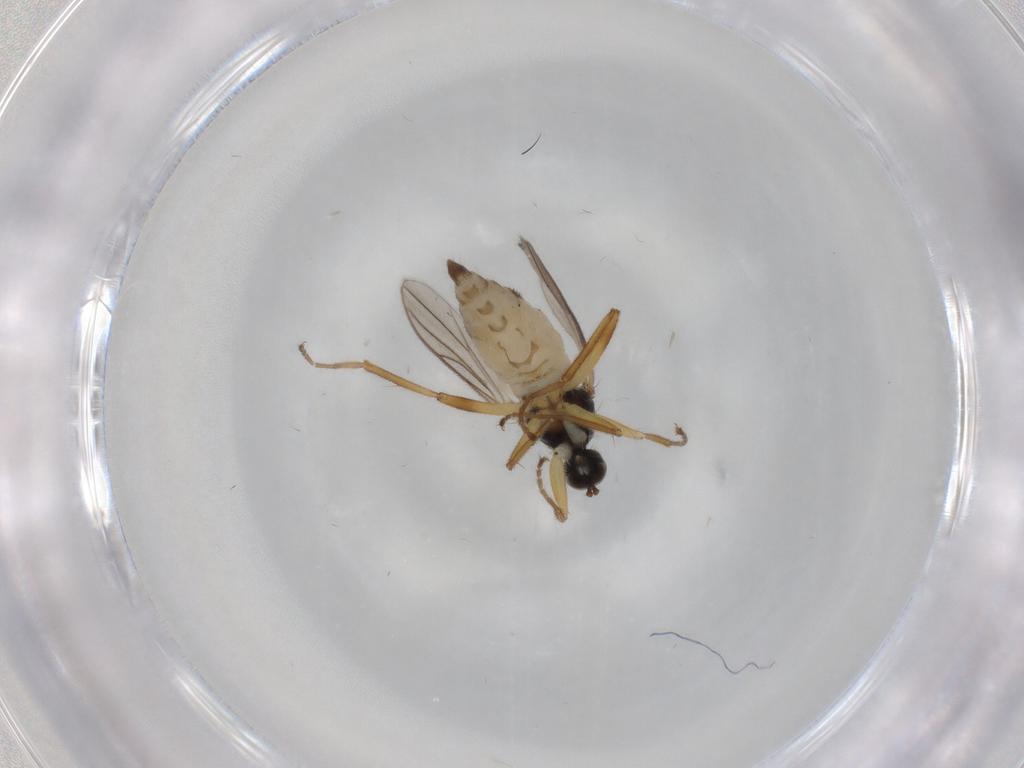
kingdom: Animalia
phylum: Arthropoda
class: Insecta
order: Diptera
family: Hybotidae
